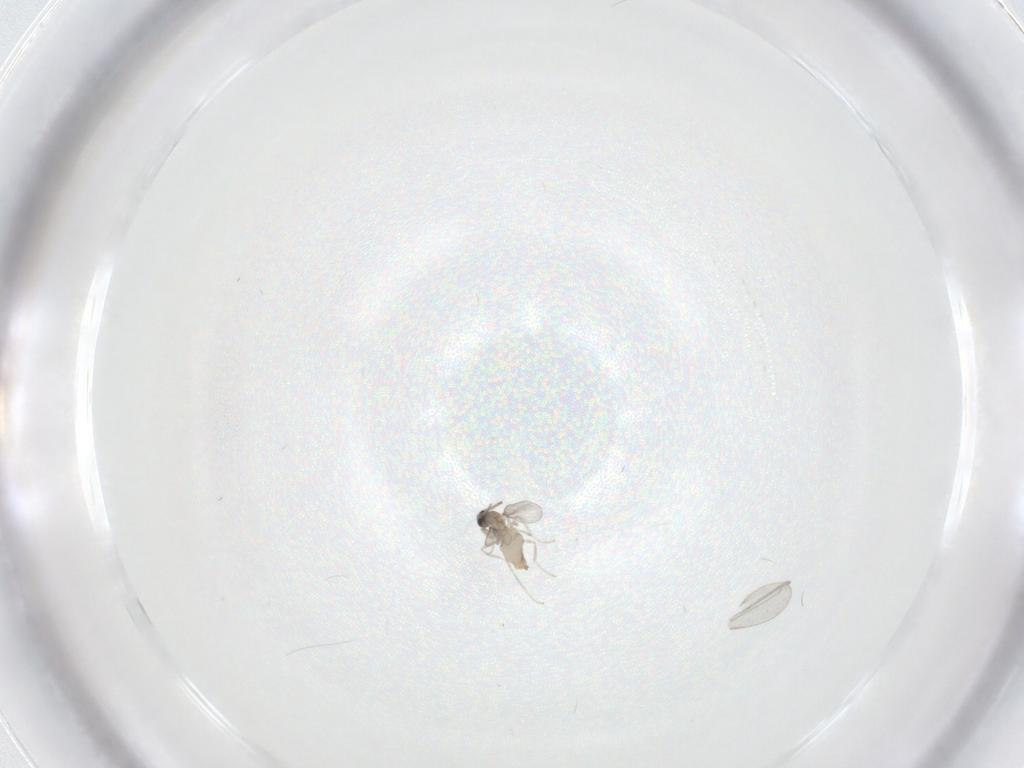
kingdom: Animalia
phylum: Arthropoda
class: Insecta
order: Diptera
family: Cecidomyiidae
